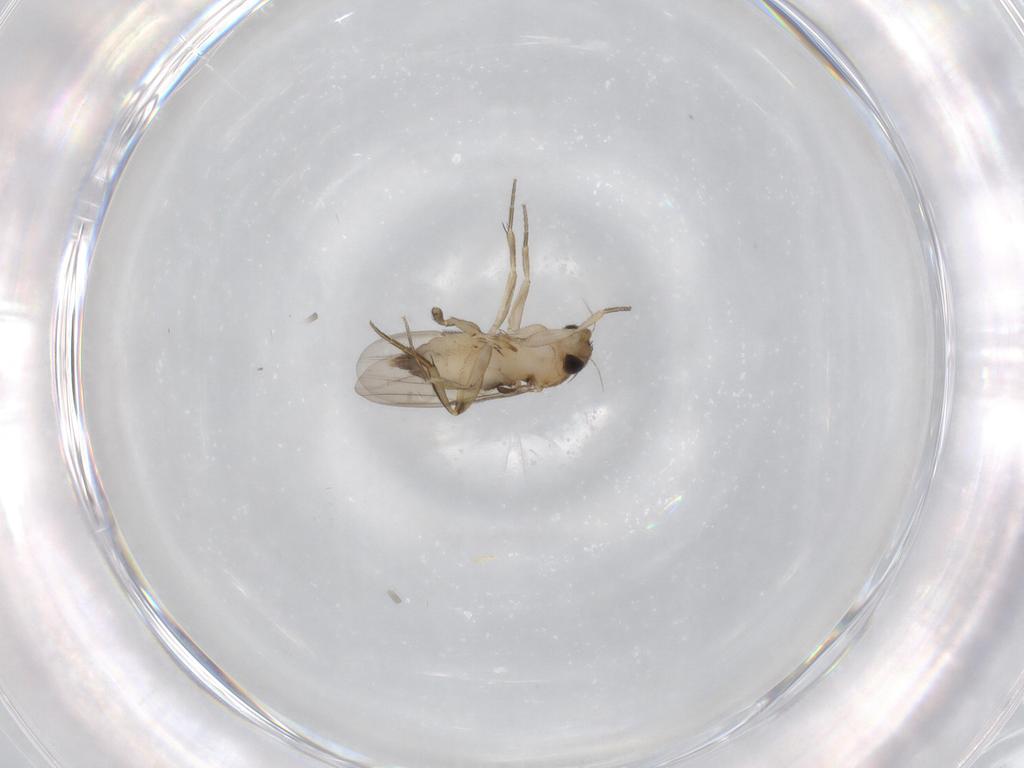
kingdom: Animalia
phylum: Arthropoda
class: Insecta
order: Diptera
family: Phoridae
